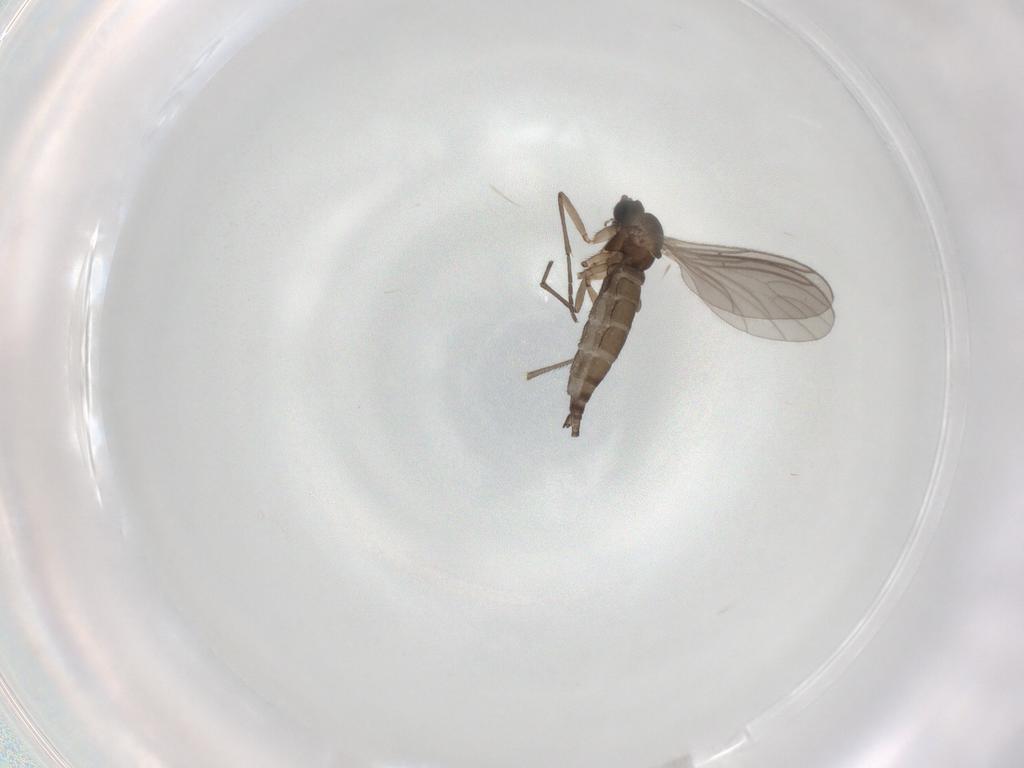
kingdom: Animalia
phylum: Arthropoda
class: Insecta
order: Diptera
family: Sciaridae
